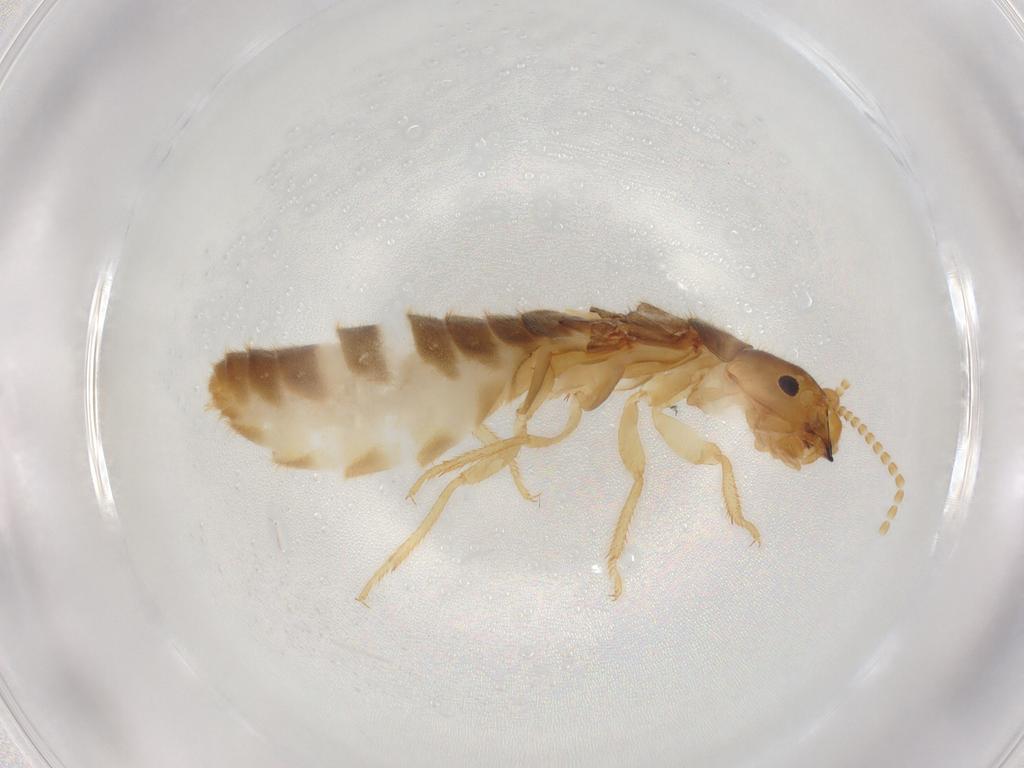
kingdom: Animalia
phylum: Arthropoda
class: Insecta
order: Blattodea
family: Rhinotermitidae
